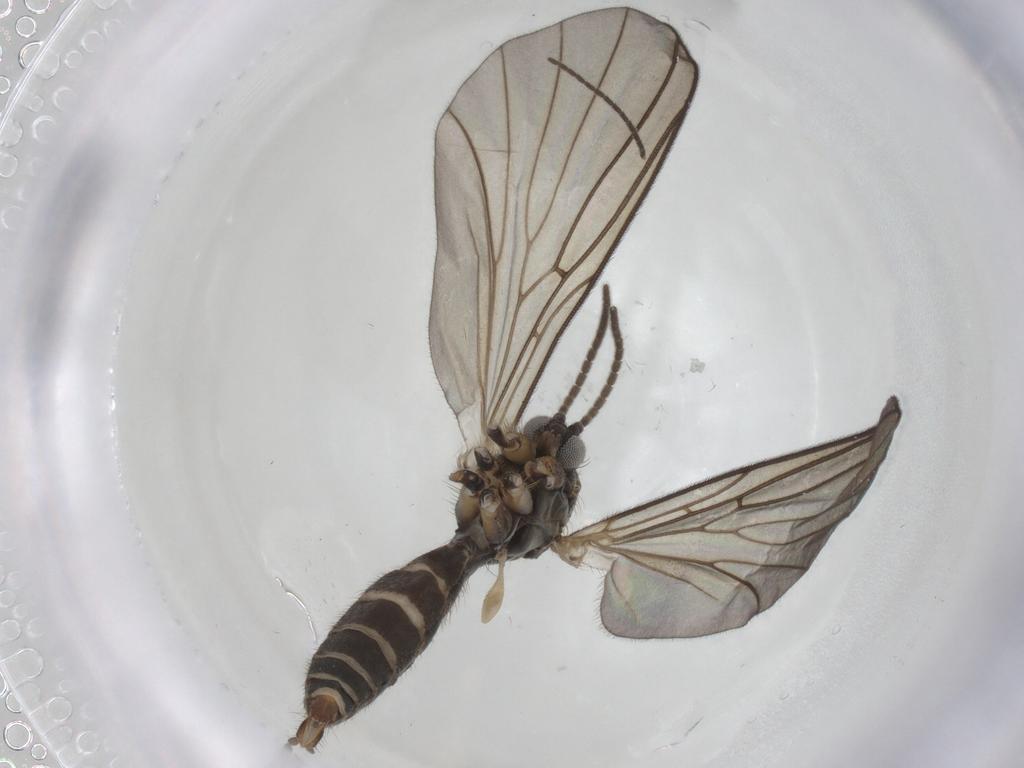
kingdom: Animalia
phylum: Arthropoda
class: Insecta
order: Diptera
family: Mycetophilidae
